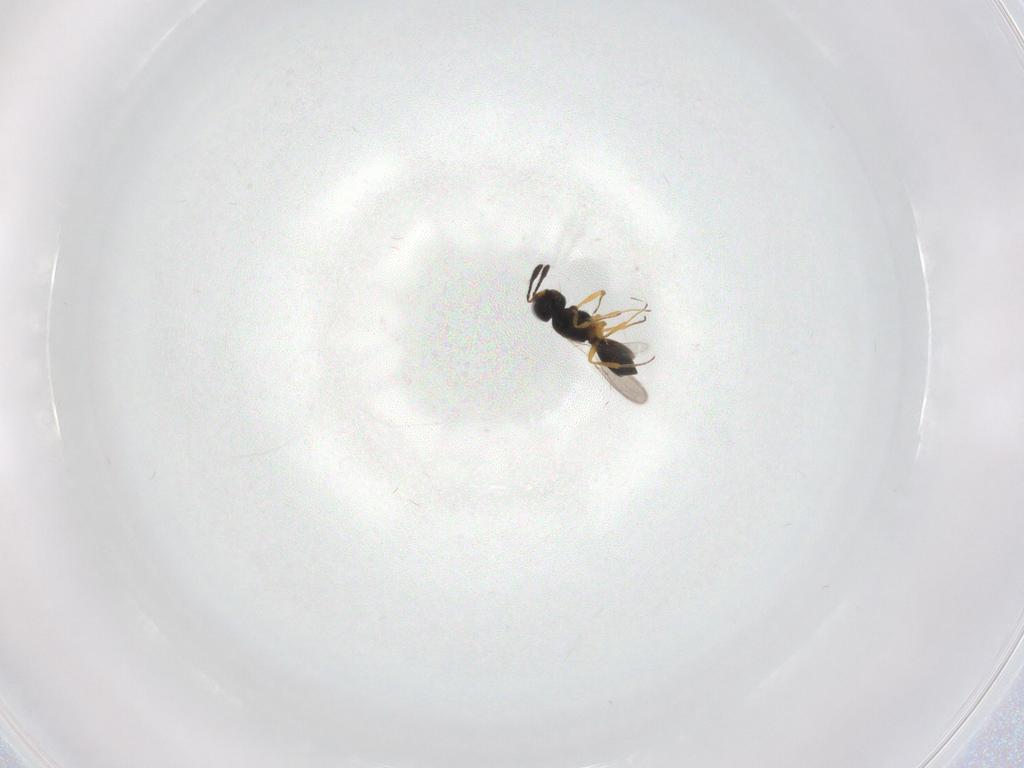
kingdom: Animalia
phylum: Arthropoda
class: Insecta
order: Hymenoptera
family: Scelionidae
